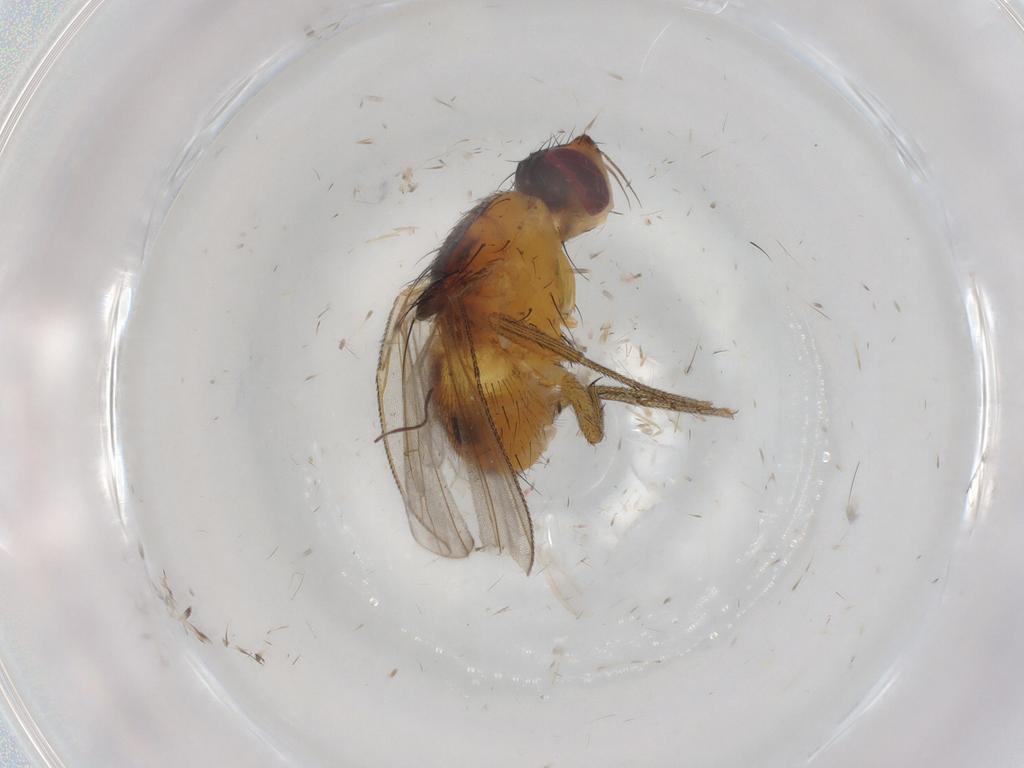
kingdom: Animalia
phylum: Arthropoda
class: Insecta
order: Diptera
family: Muscidae
